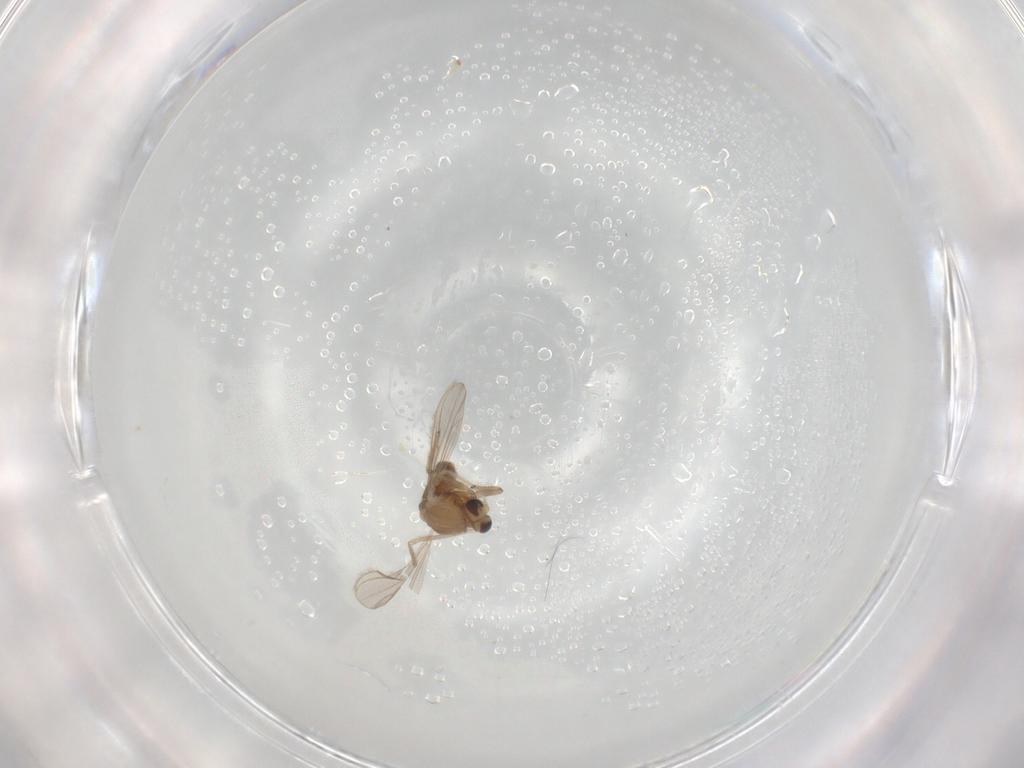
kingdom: Animalia
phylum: Arthropoda
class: Insecta
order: Diptera
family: Chironomidae
